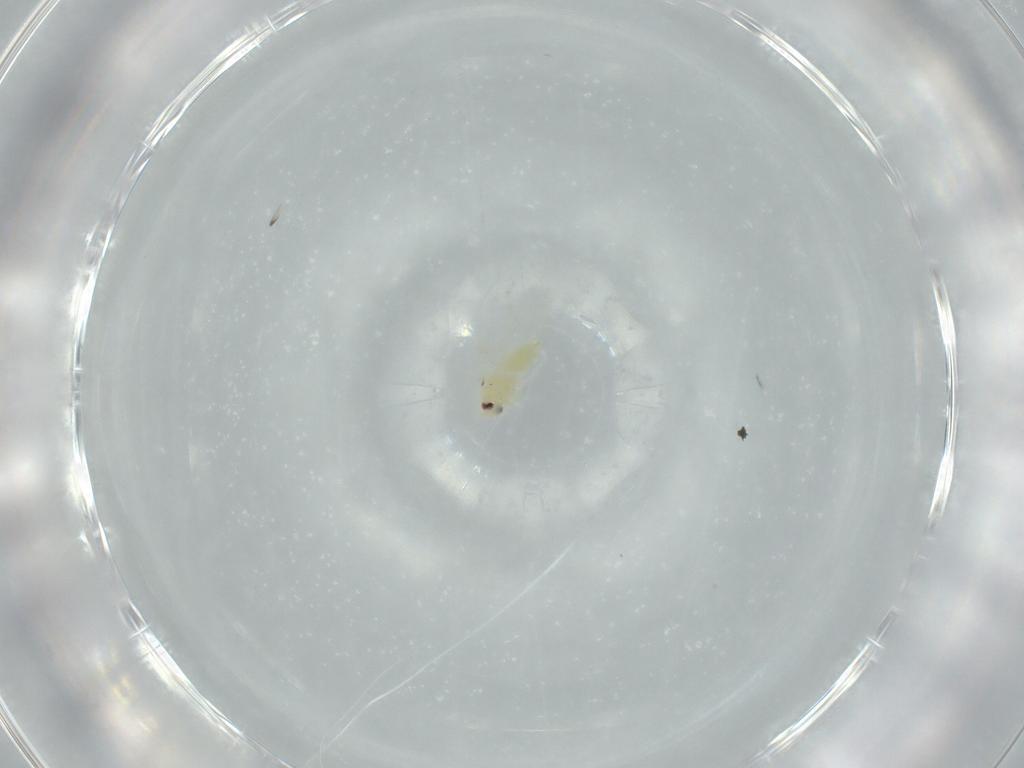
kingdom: Animalia
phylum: Arthropoda
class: Insecta
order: Hemiptera
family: Aleyrodidae
